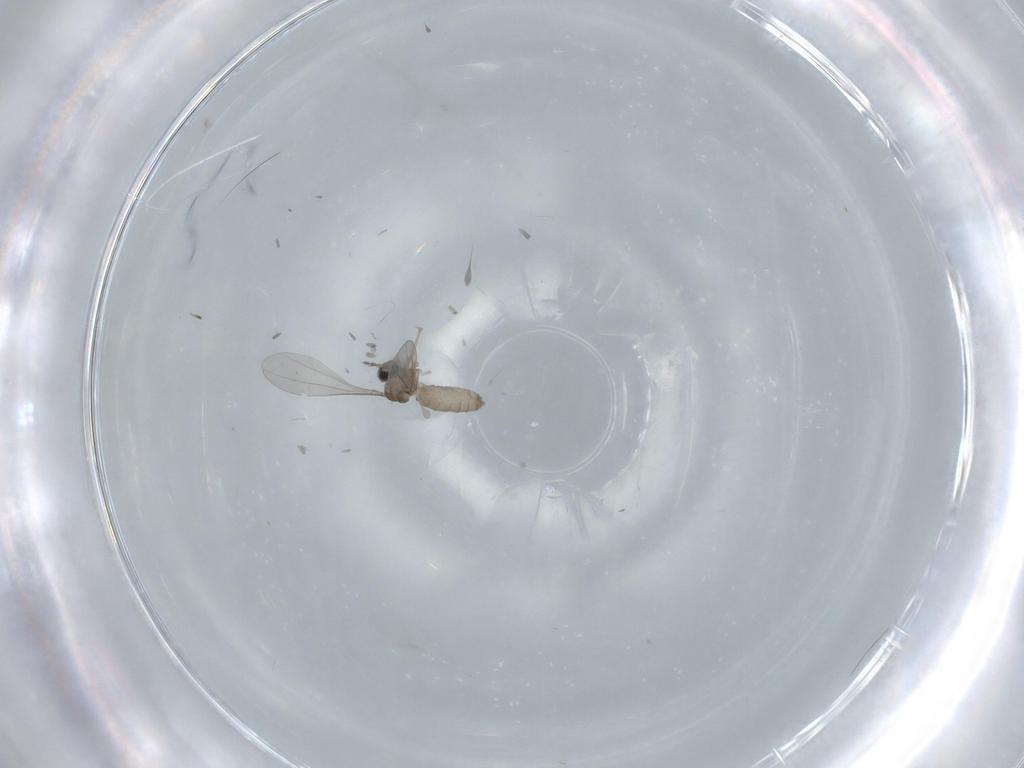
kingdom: Animalia
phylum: Arthropoda
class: Insecta
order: Diptera
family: Cecidomyiidae
